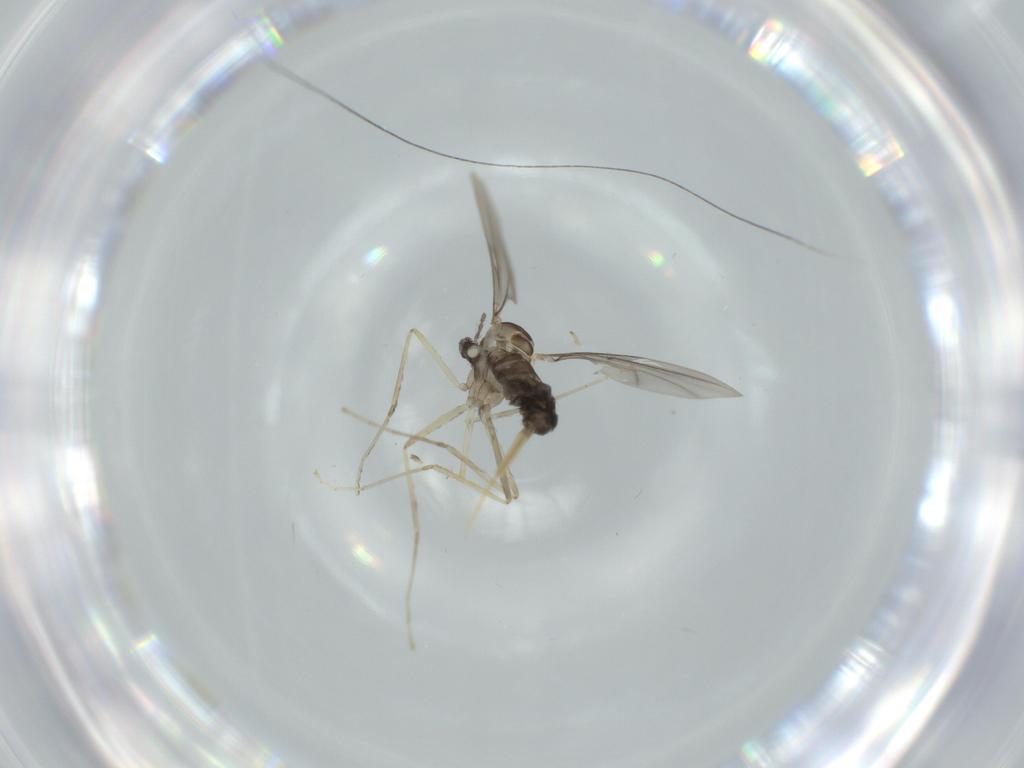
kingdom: Animalia
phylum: Arthropoda
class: Insecta
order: Diptera
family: Cecidomyiidae
